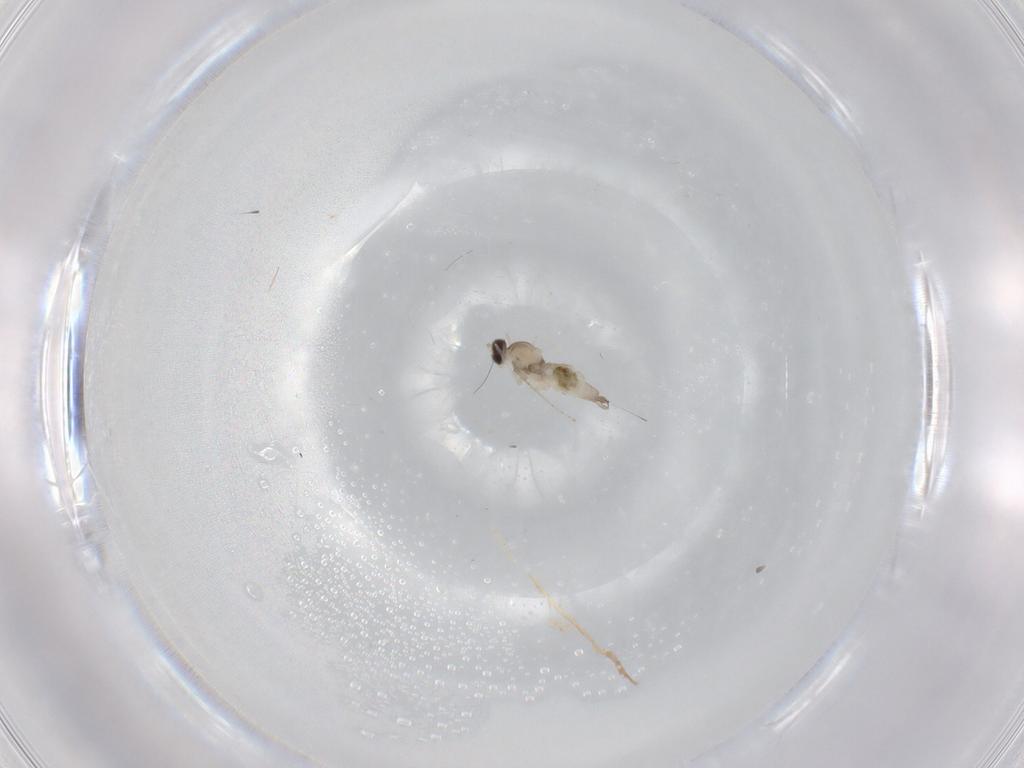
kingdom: Animalia
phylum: Arthropoda
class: Insecta
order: Diptera
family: Cecidomyiidae
